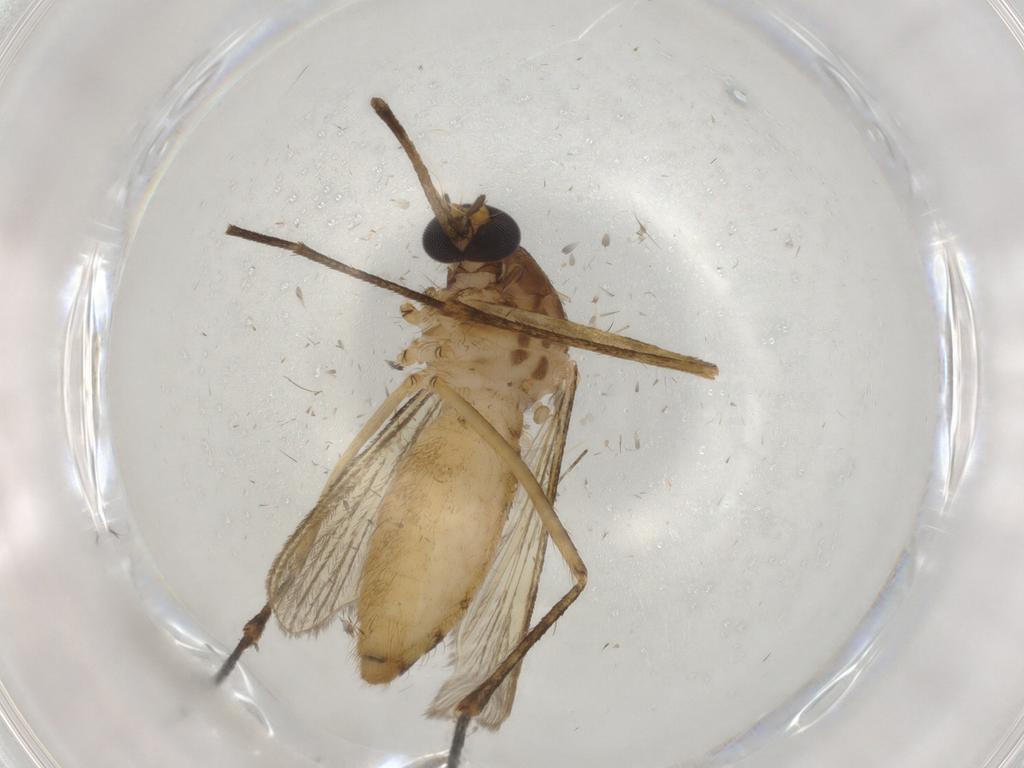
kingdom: Animalia
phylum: Arthropoda
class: Insecta
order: Diptera
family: Culicidae
